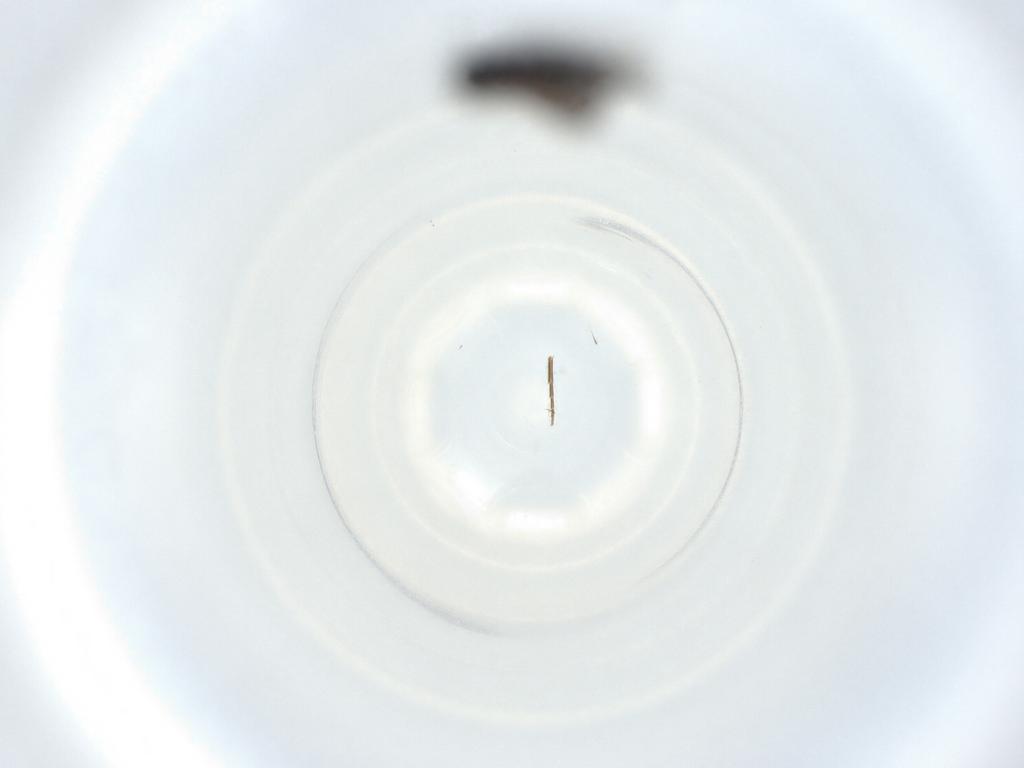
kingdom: Animalia
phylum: Arthropoda
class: Insecta
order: Diptera
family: Phoridae
